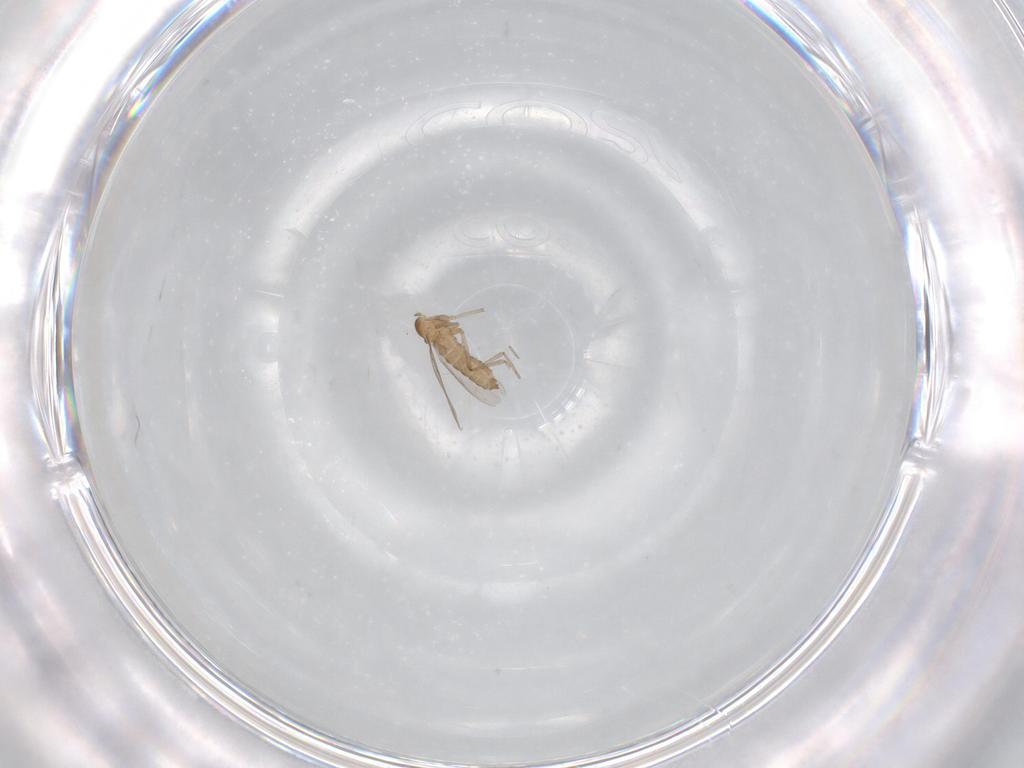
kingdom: Animalia
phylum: Arthropoda
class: Insecta
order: Diptera
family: Cecidomyiidae
